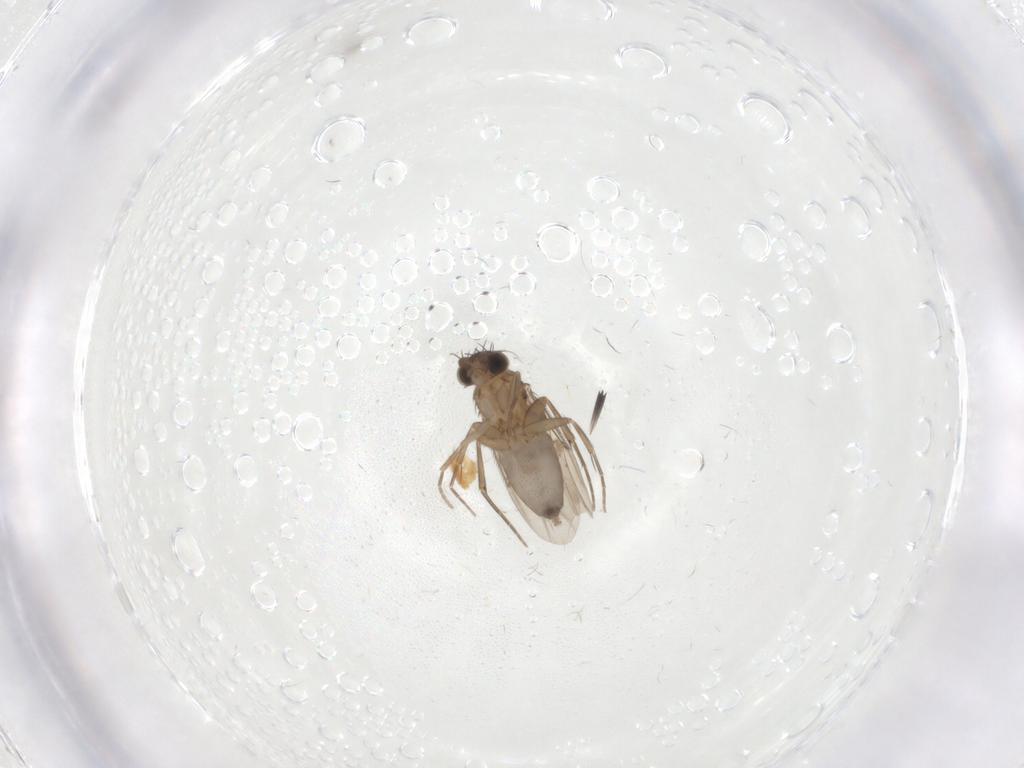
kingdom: Animalia
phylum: Arthropoda
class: Insecta
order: Diptera
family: Phoridae
